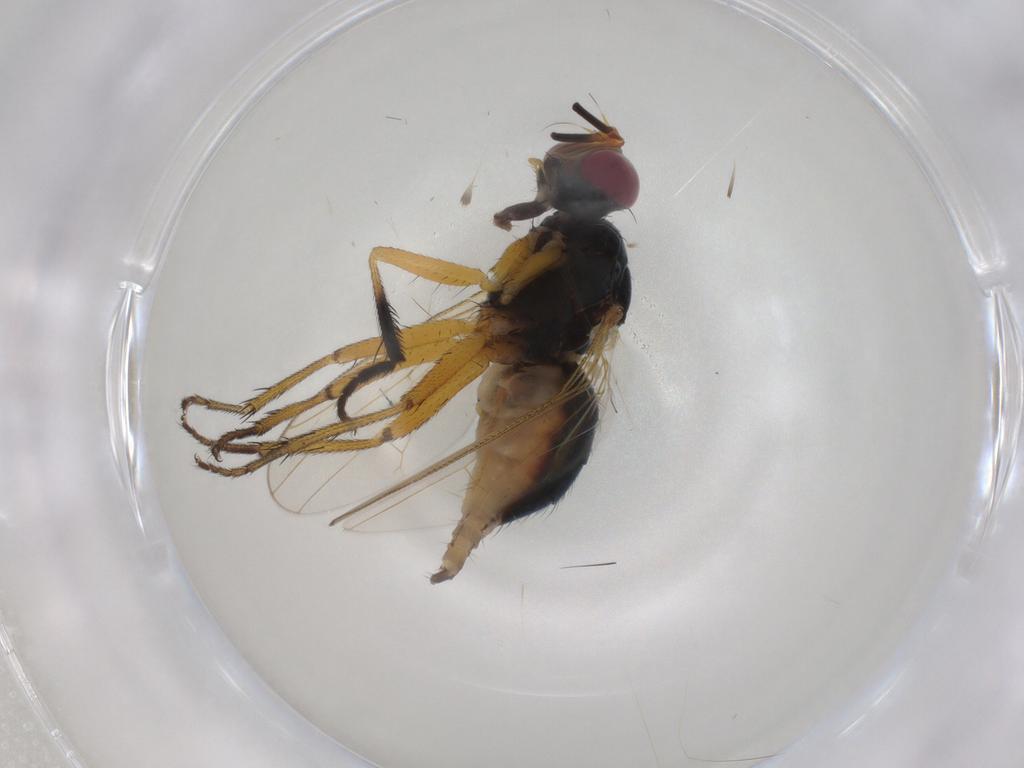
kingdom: Animalia
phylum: Arthropoda
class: Insecta
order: Diptera
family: Muscidae
